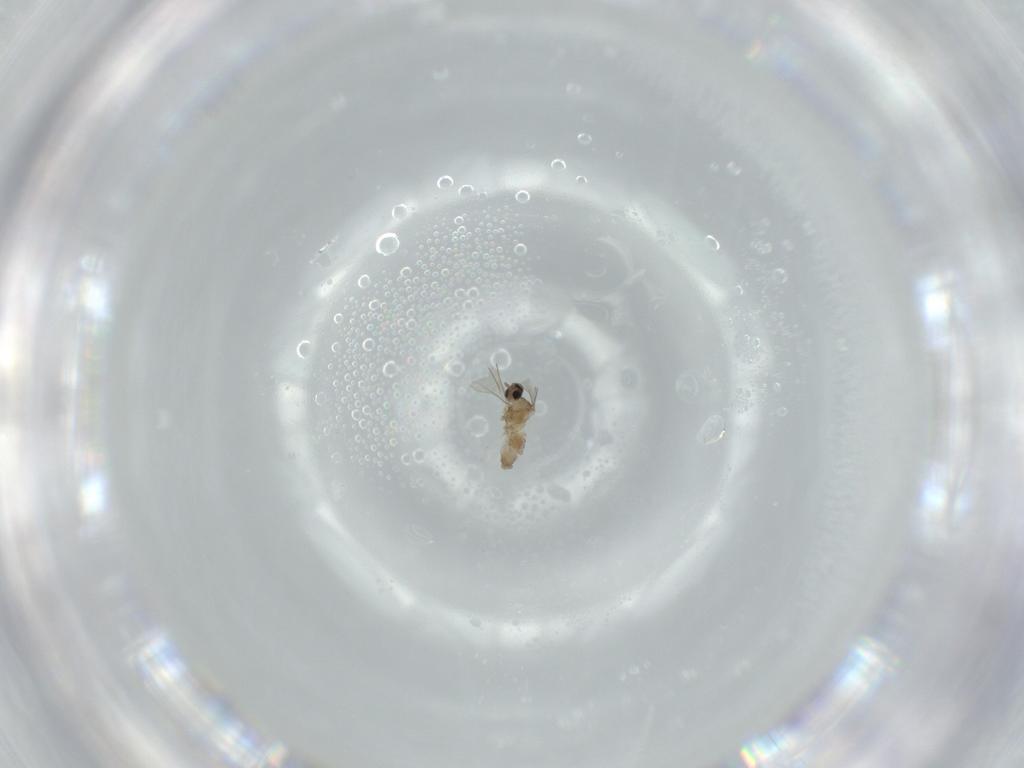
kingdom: Animalia
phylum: Arthropoda
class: Insecta
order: Diptera
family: Cecidomyiidae
